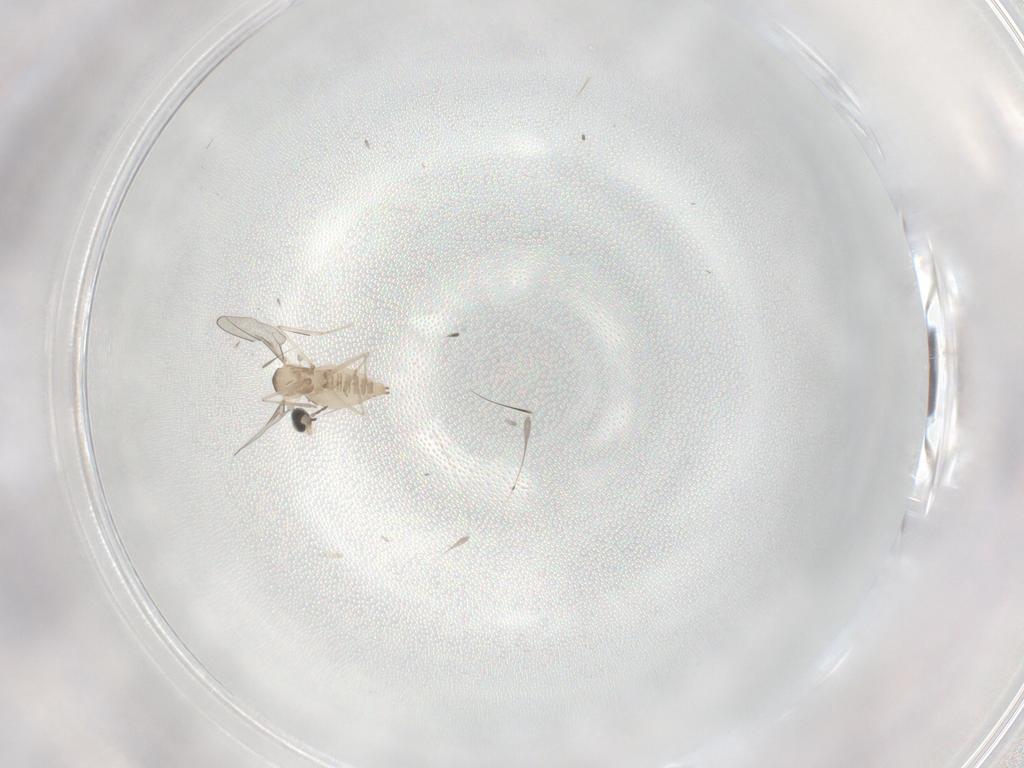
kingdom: Animalia
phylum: Arthropoda
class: Insecta
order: Diptera
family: Cecidomyiidae
